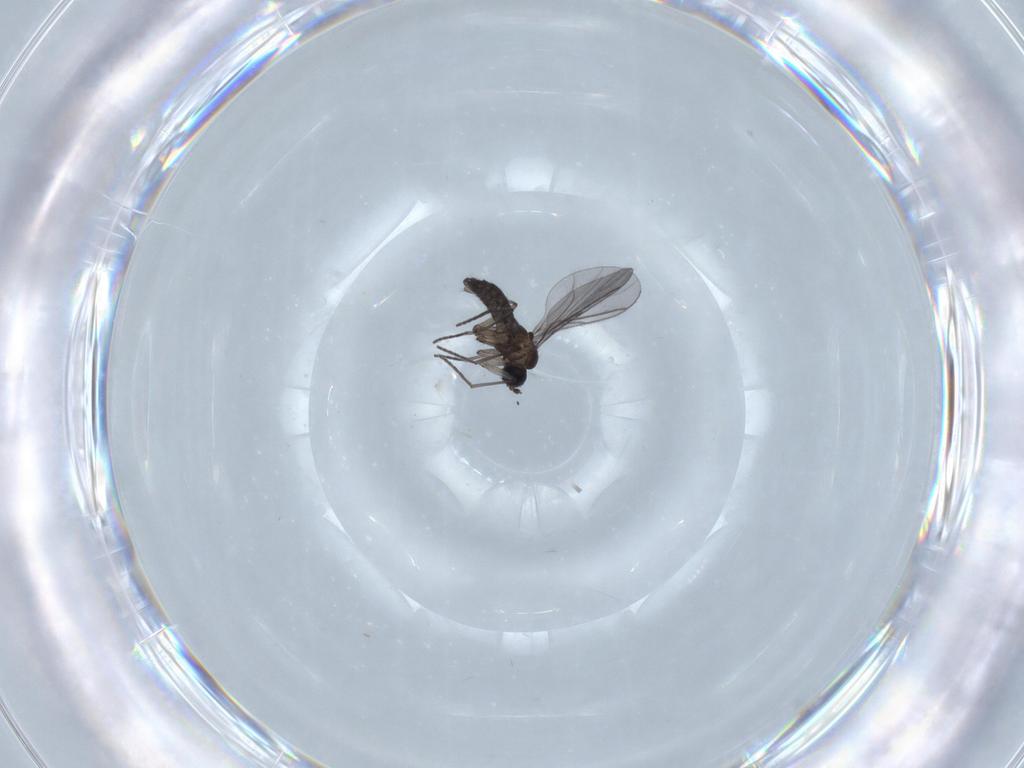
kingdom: Animalia
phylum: Arthropoda
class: Insecta
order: Diptera
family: Sciaridae
